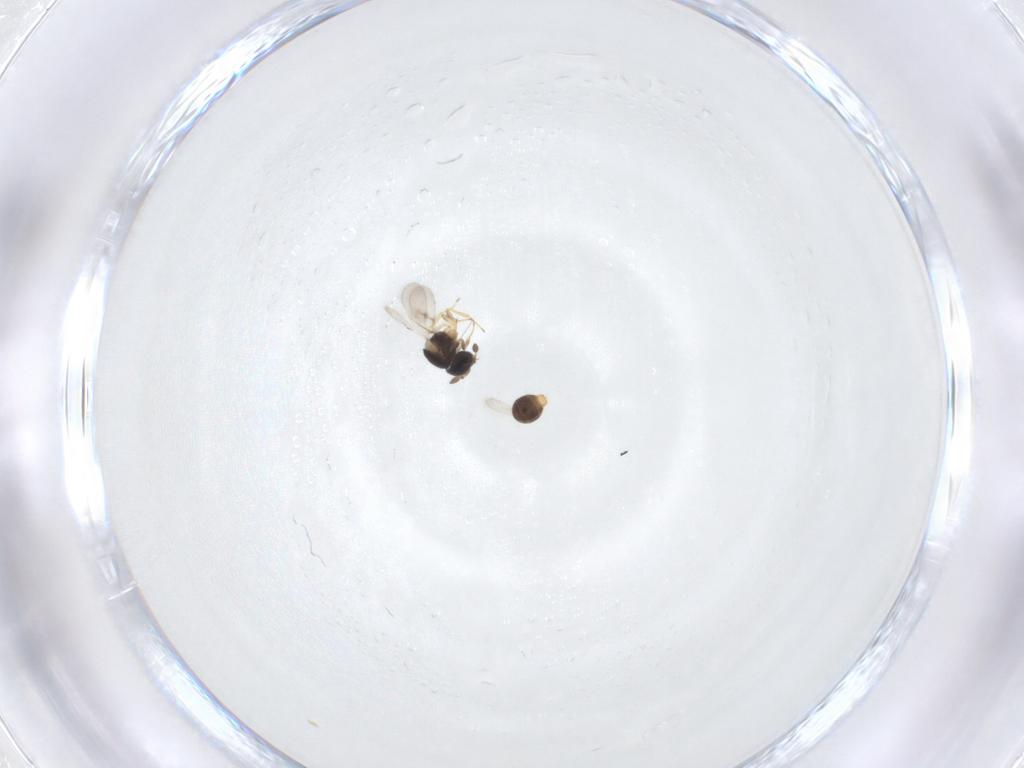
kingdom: Animalia
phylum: Arthropoda
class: Insecta
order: Hymenoptera
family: Scelionidae
